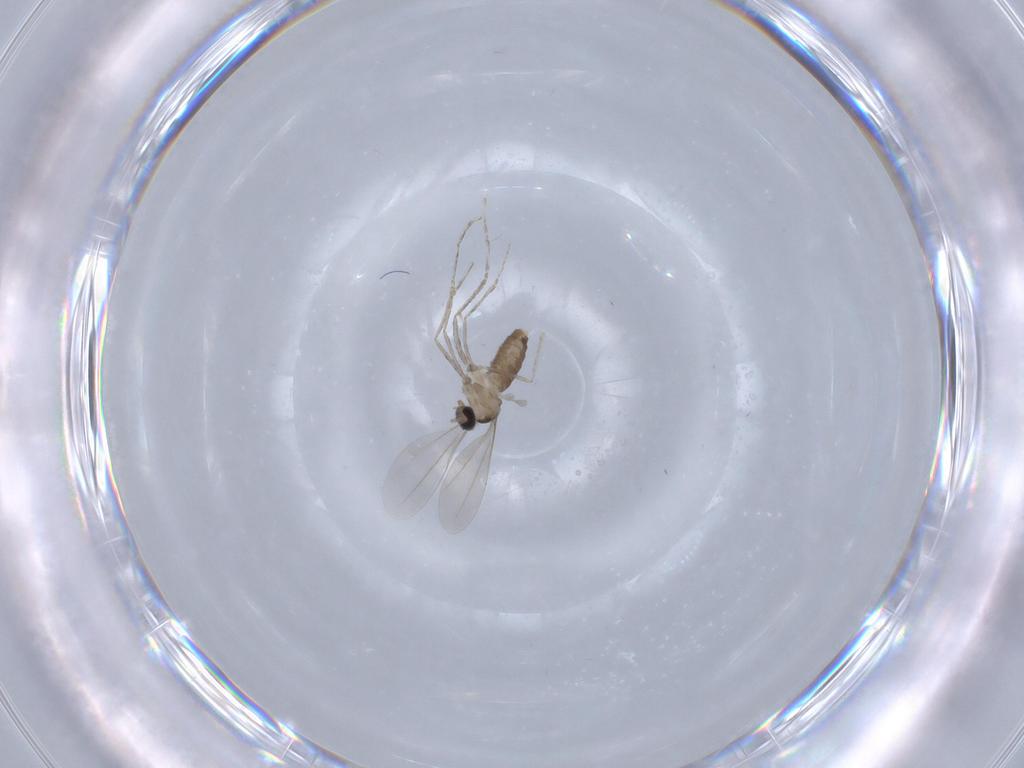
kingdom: Animalia
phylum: Arthropoda
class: Insecta
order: Diptera
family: Cecidomyiidae
